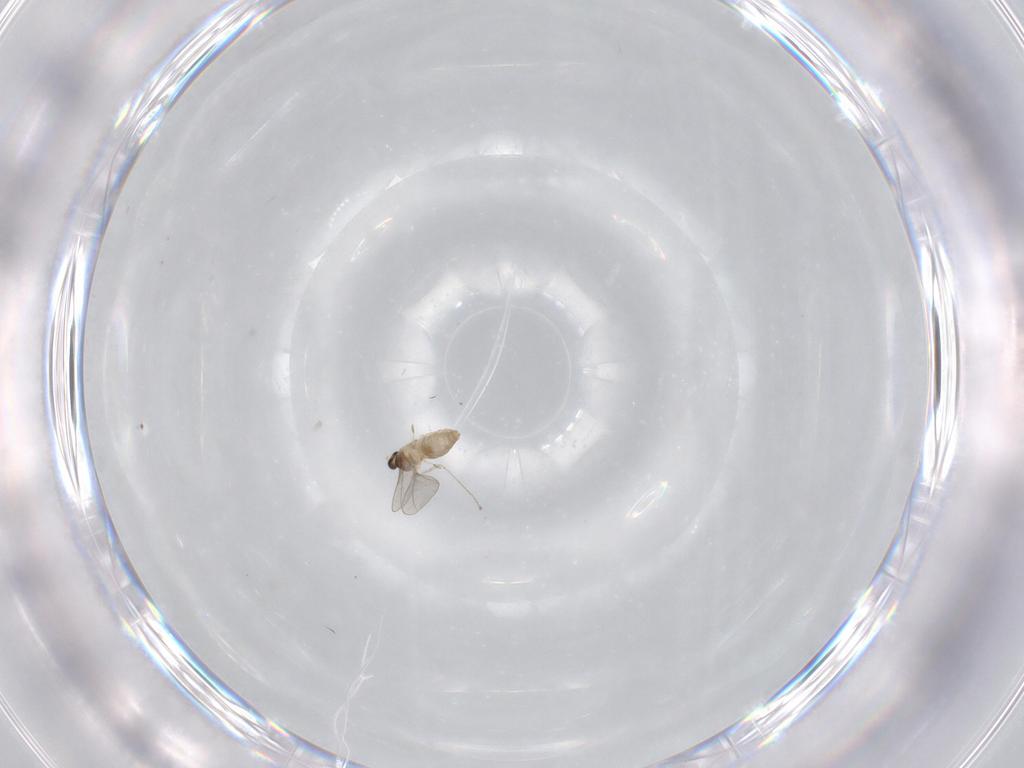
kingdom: Animalia
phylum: Arthropoda
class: Insecta
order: Diptera
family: Cecidomyiidae
